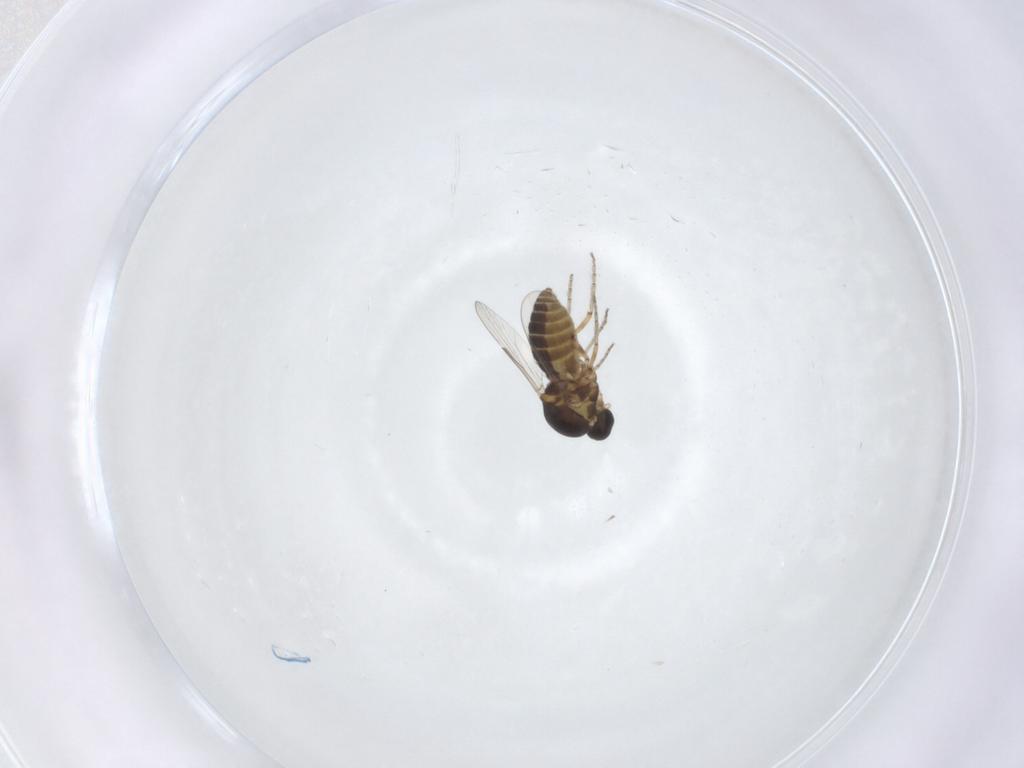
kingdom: Animalia
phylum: Arthropoda
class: Insecta
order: Diptera
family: Ceratopogonidae
